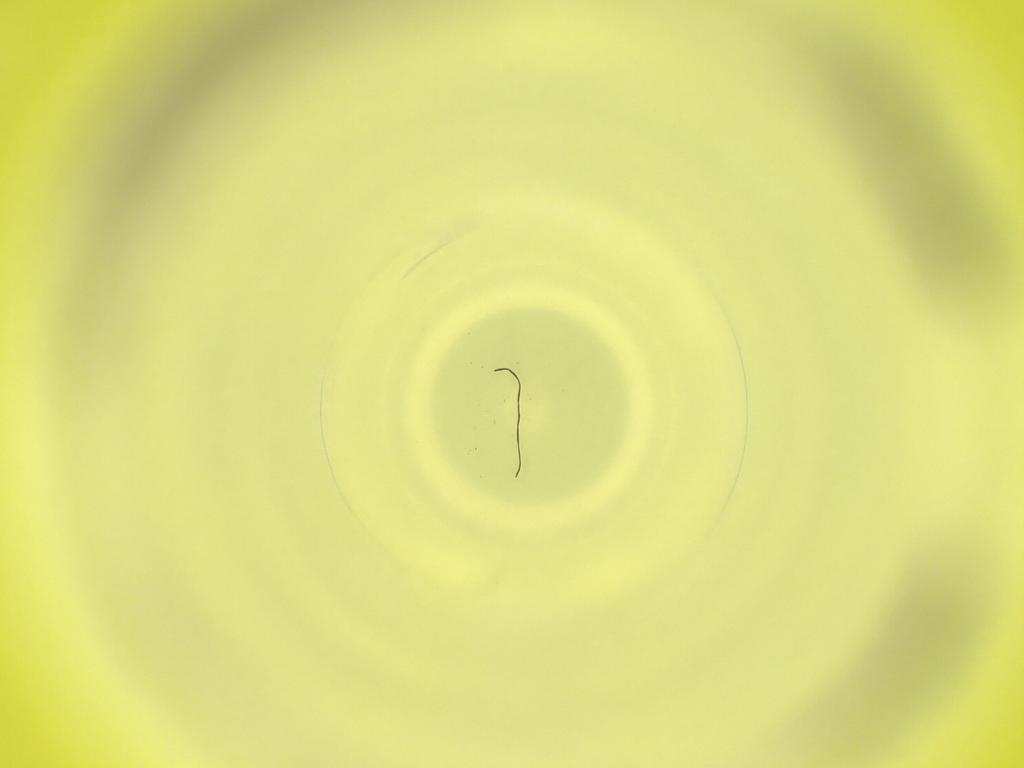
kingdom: Animalia
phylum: Arthropoda
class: Insecta
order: Diptera
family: Cecidomyiidae
